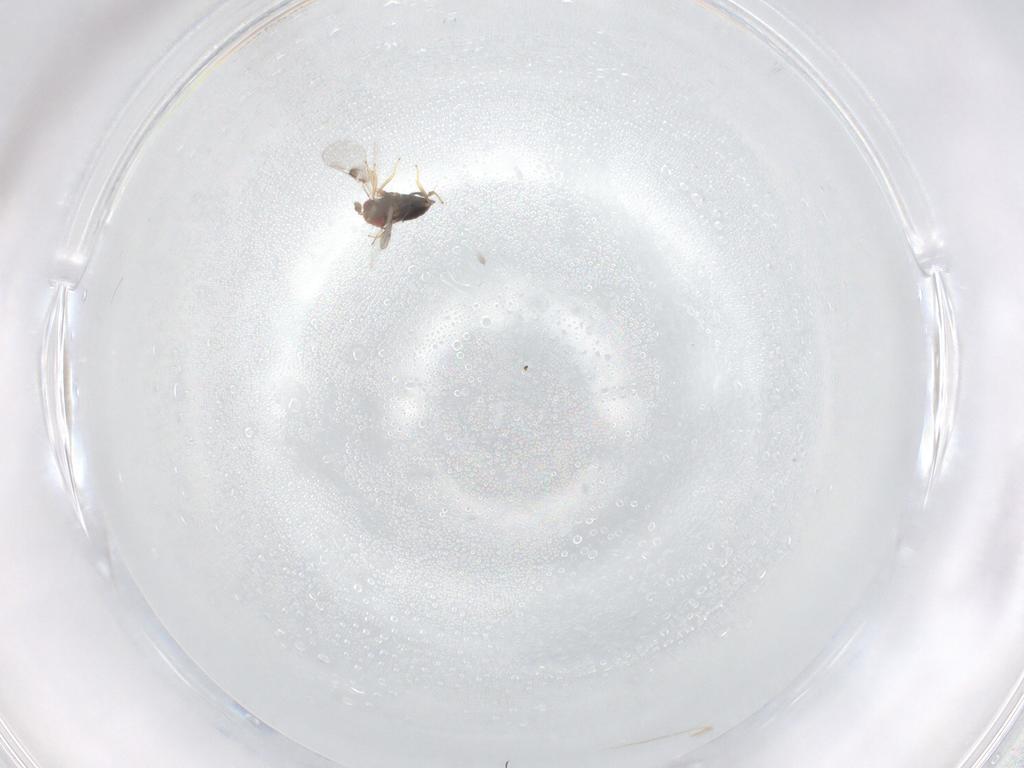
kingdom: Animalia
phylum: Arthropoda
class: Insecta
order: Hymenoptera
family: Trichogrammatidae
